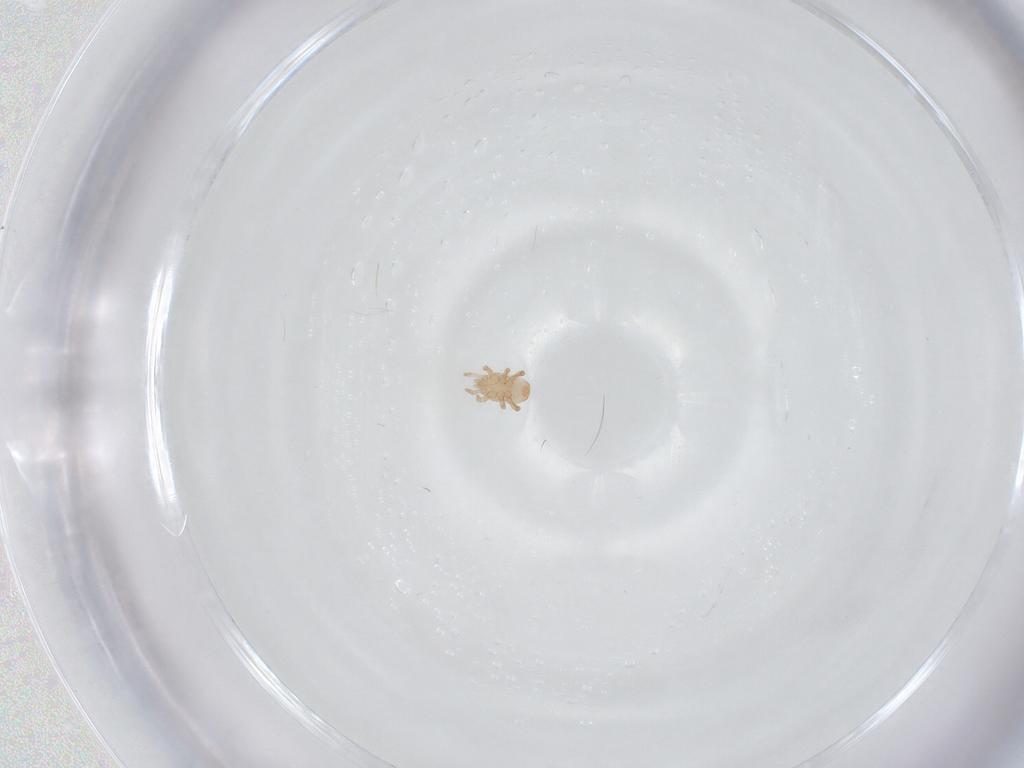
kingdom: Animalia
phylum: Arthropoda
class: Arachnida
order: Mesostigmata
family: Halolaelapidae
